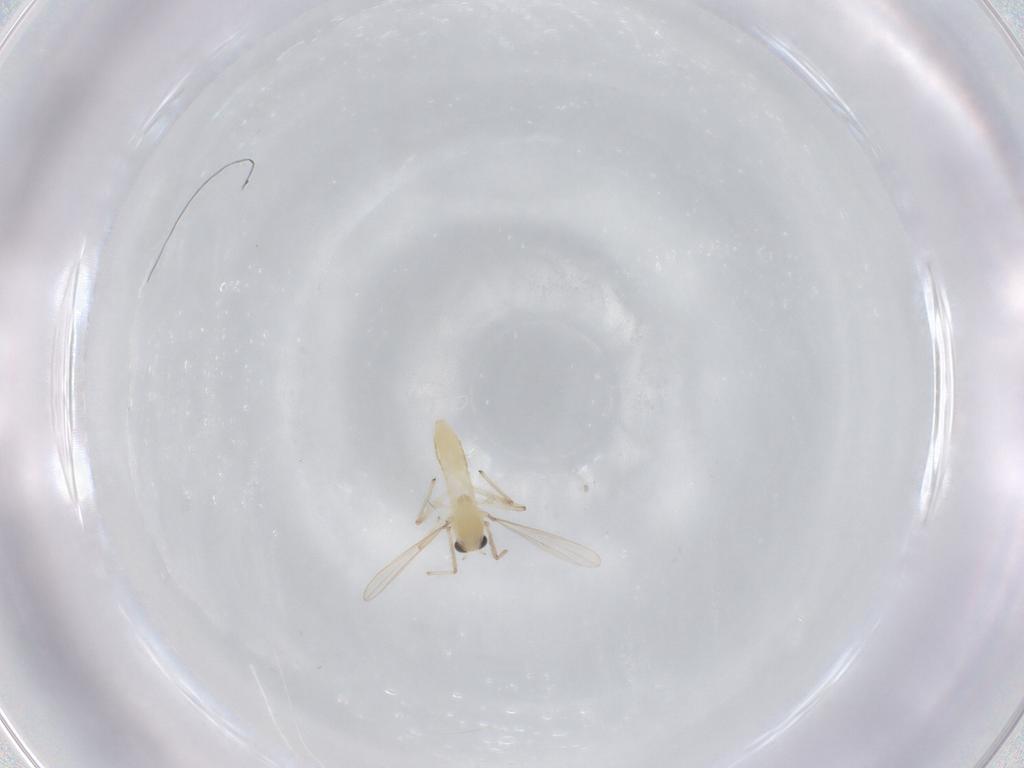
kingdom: Animalia
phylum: Arthropoda
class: Insecta
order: Diptera
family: Chironomidae
